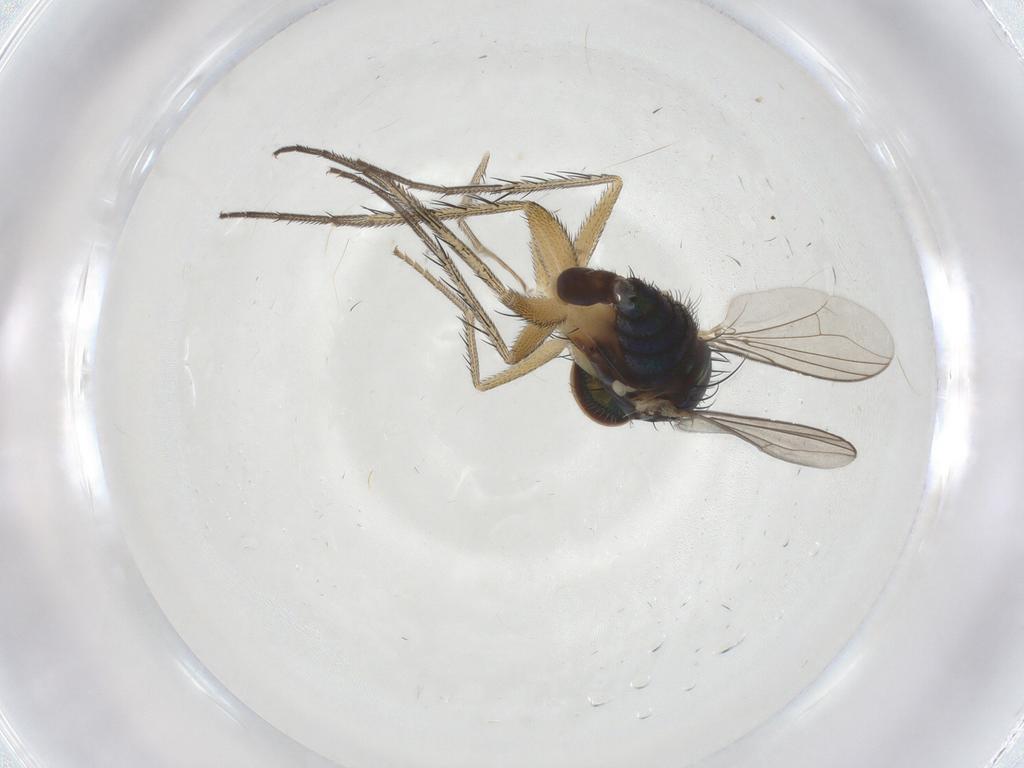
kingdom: Animalia
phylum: Arthropoda
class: Insecta
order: Diptera
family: Dolichopodidae
